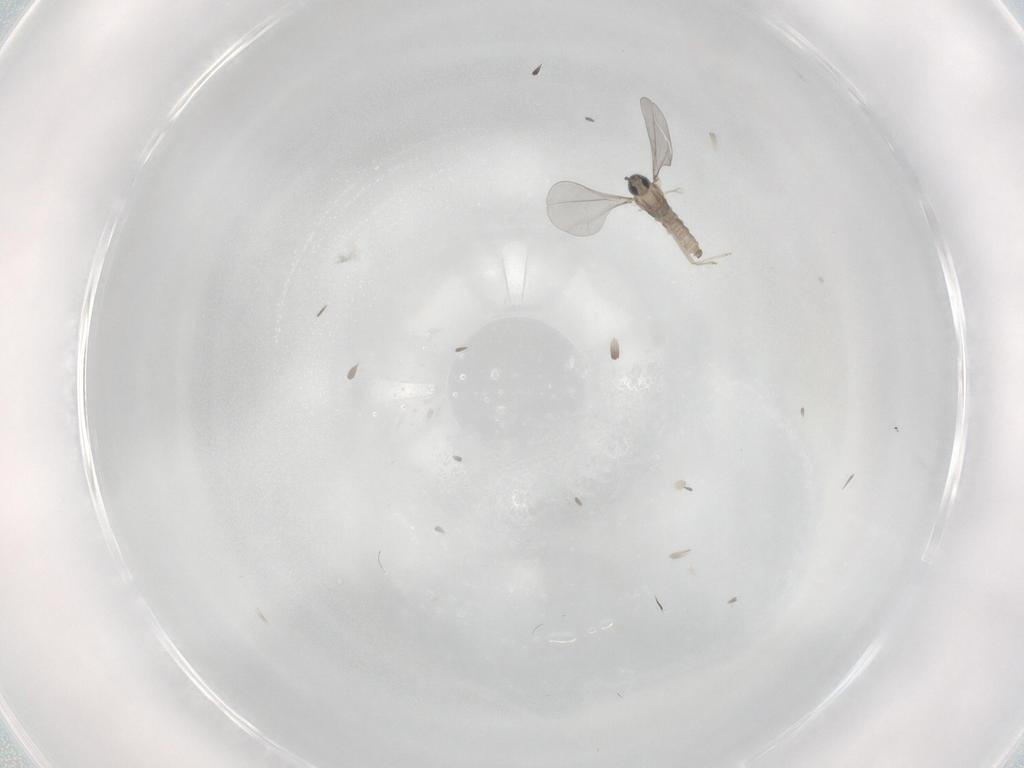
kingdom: Animalia
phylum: Arthropoda
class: Insecta
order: Diptera
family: Cecidomyiidae
